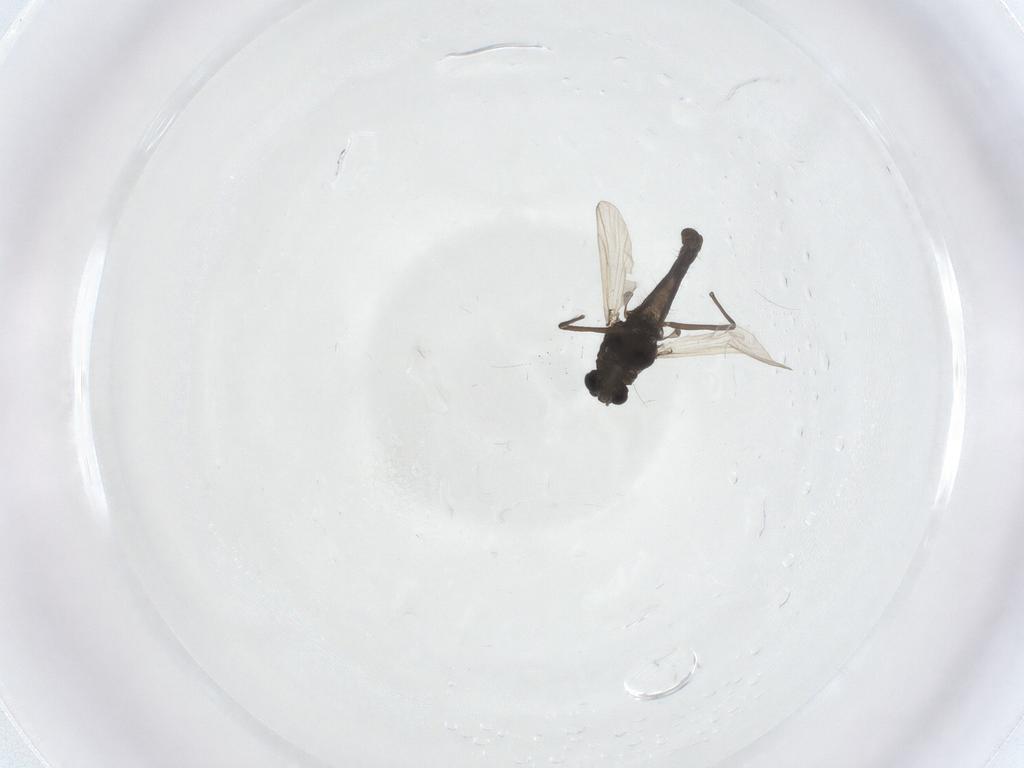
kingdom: Animalia
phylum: Arthropoda
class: Insecta
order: Diptera
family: Chironomidae
